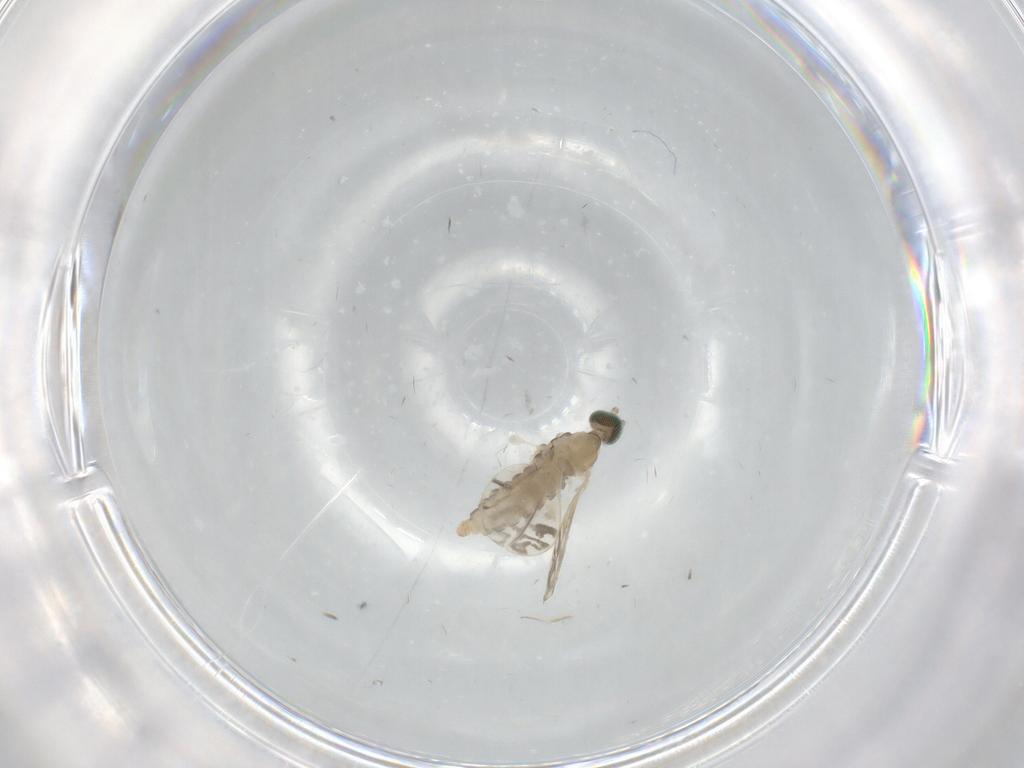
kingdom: Animalia
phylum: Arthropoda
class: Insecta
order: Diptera
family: Cecidomyiidae
